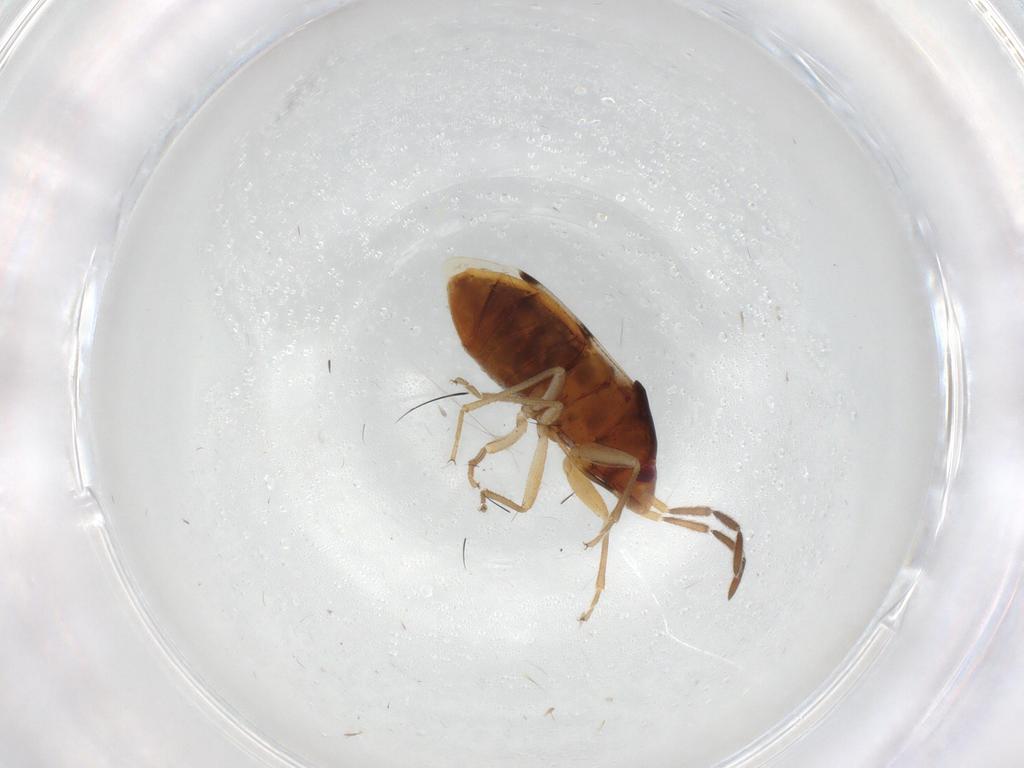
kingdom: Animalia
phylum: Arthropoda
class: Insecta
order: Hemiptera
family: Rhyparochromidae
